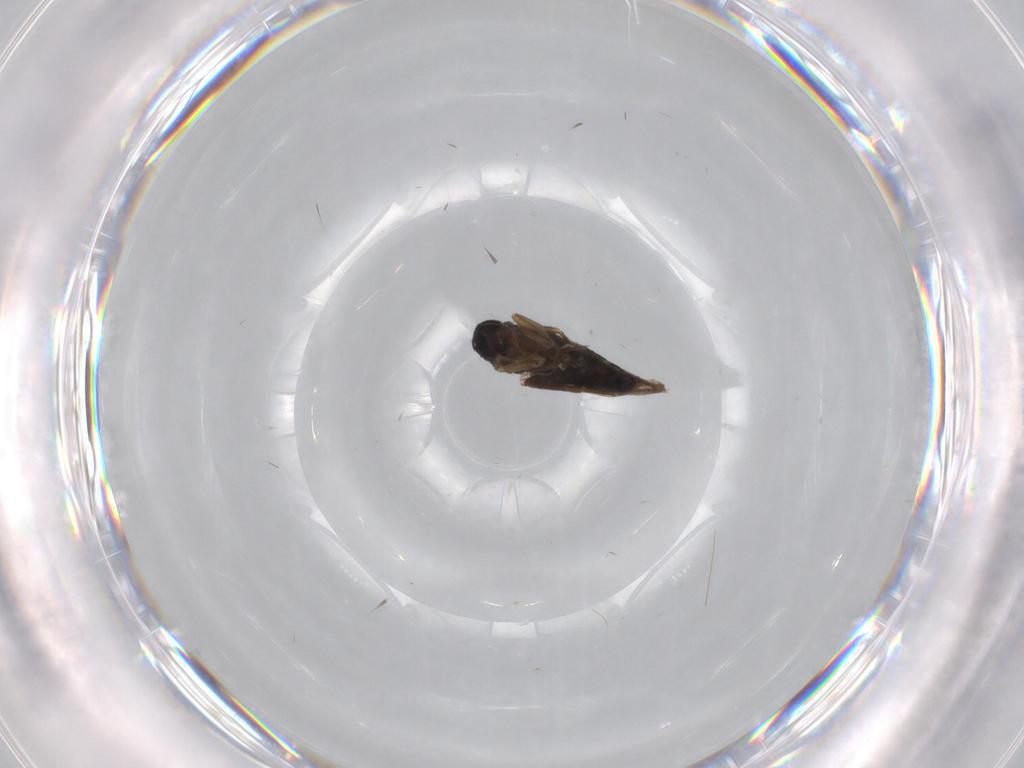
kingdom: Animalia
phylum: Arthropoda
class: Insecta
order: Diptera
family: Phoridae
